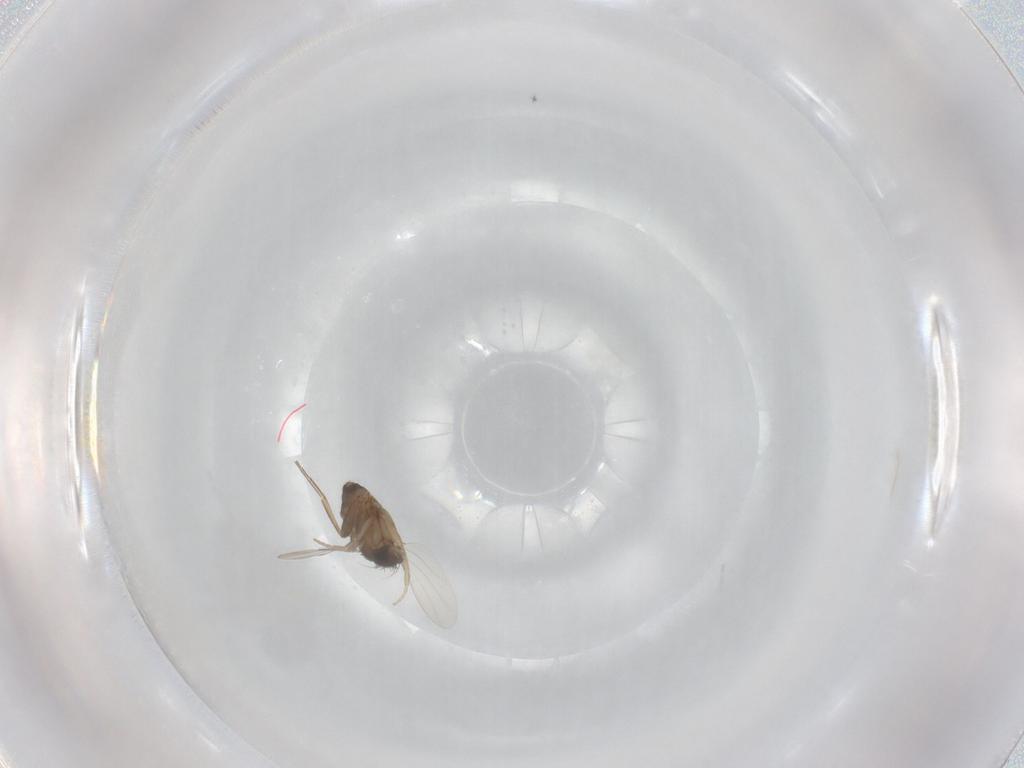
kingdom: Animalia
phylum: Arthropoda
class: Insecta
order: Diptera
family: Phoridae
